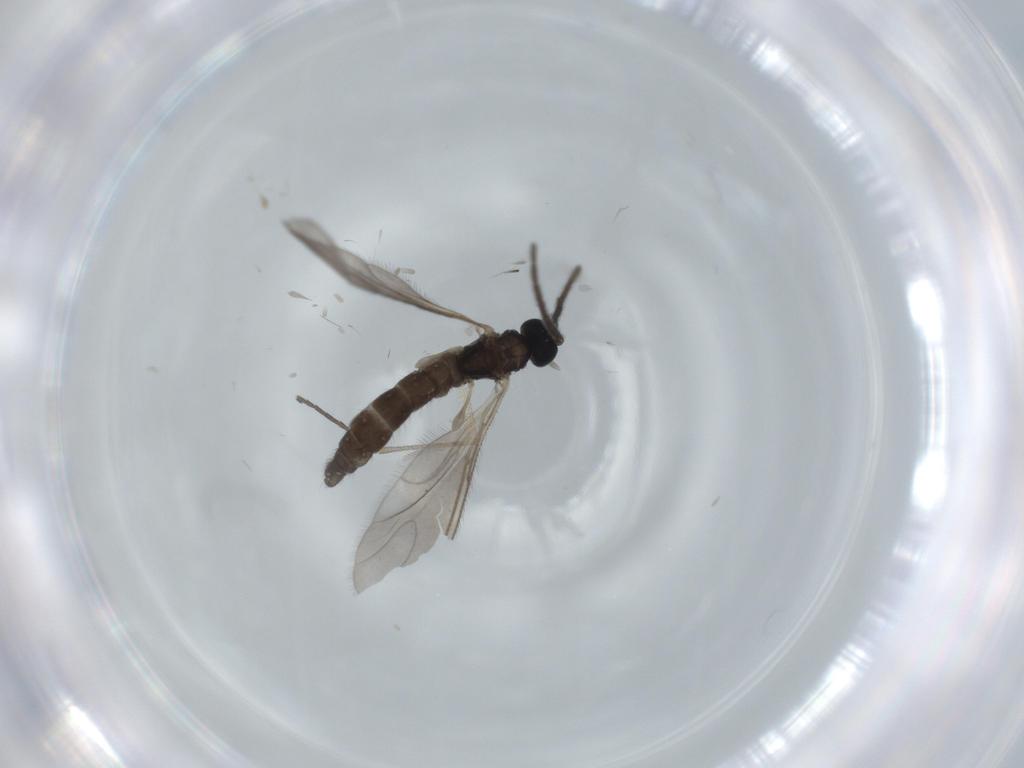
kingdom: Animalia
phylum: Arthropoda
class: Insecta
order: Diptera
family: Sciaridae
